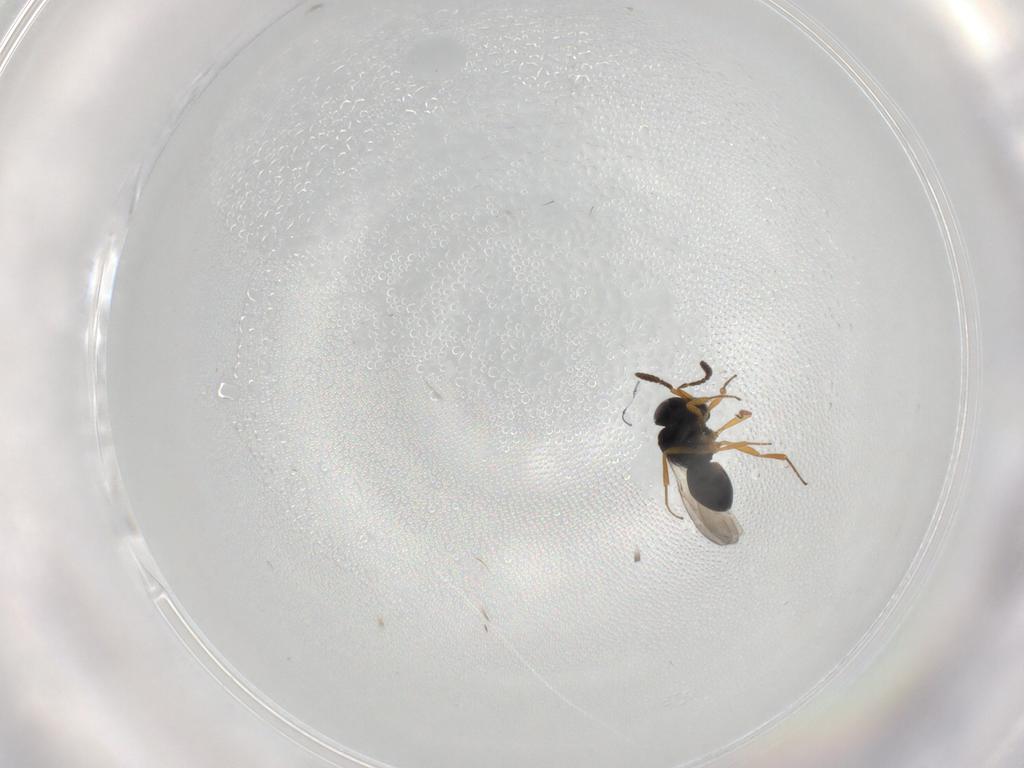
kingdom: Animalia
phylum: Arthropoda
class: Insecta
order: Hymenoptera
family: Scelionidae
